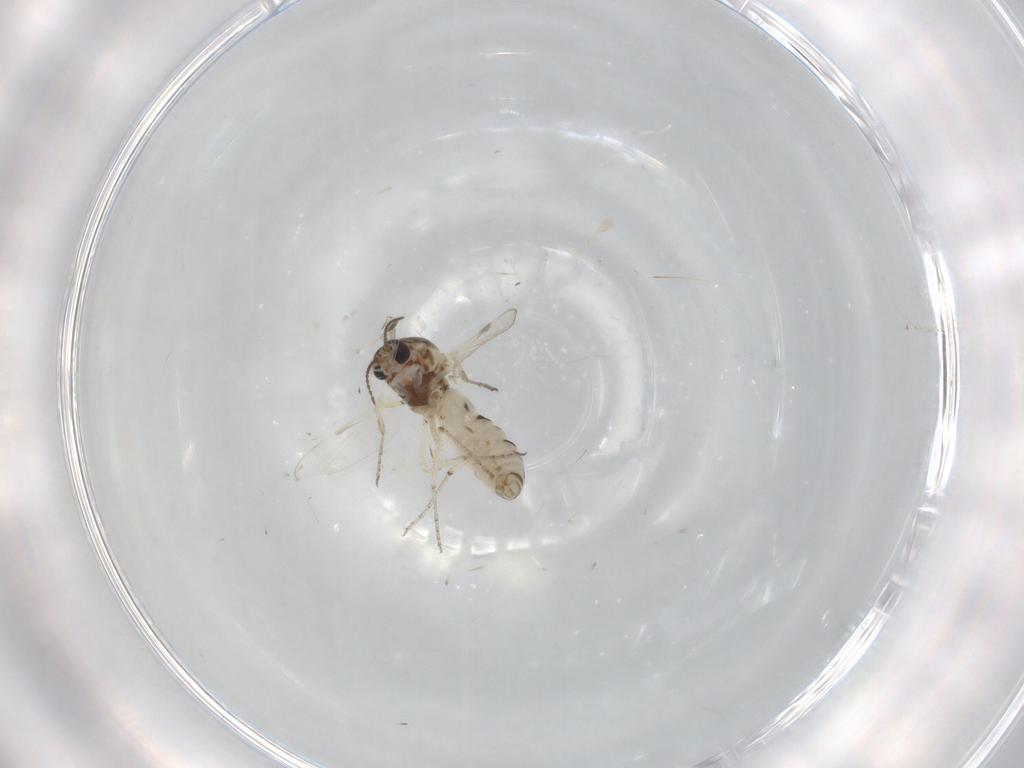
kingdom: Animalia
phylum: Arthropoda
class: Insecta
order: Diptera
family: Ceratopogonidae
